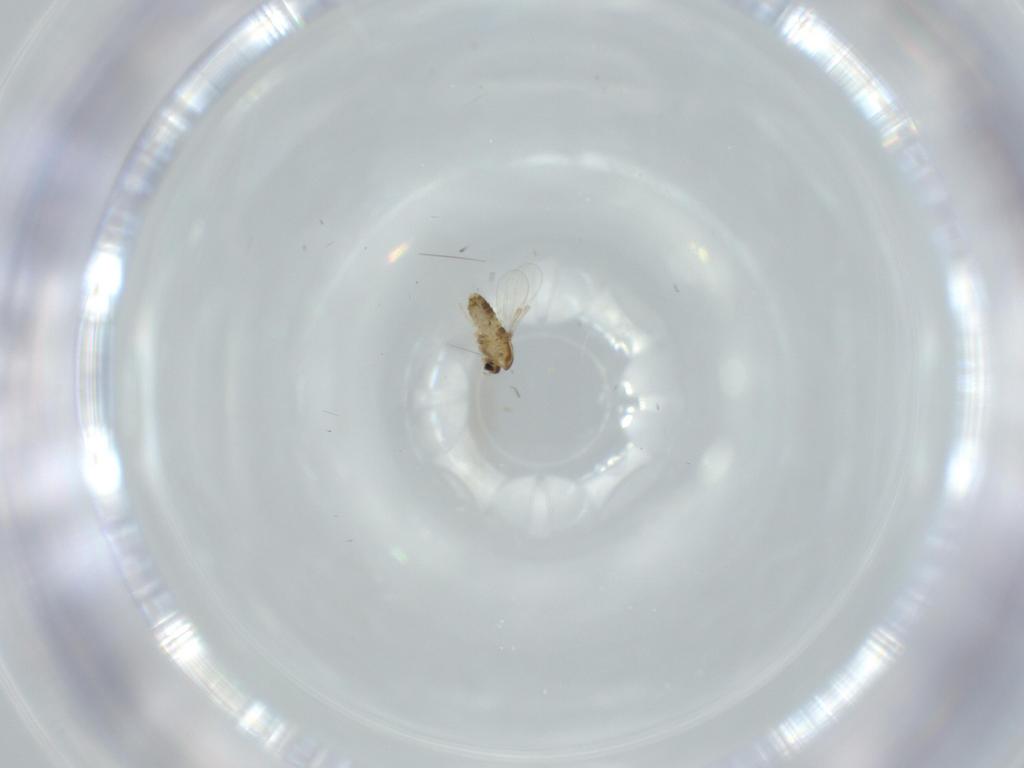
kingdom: Animalia
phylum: Arthropoda
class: Insecta
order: Diptera
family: Chironomidae
